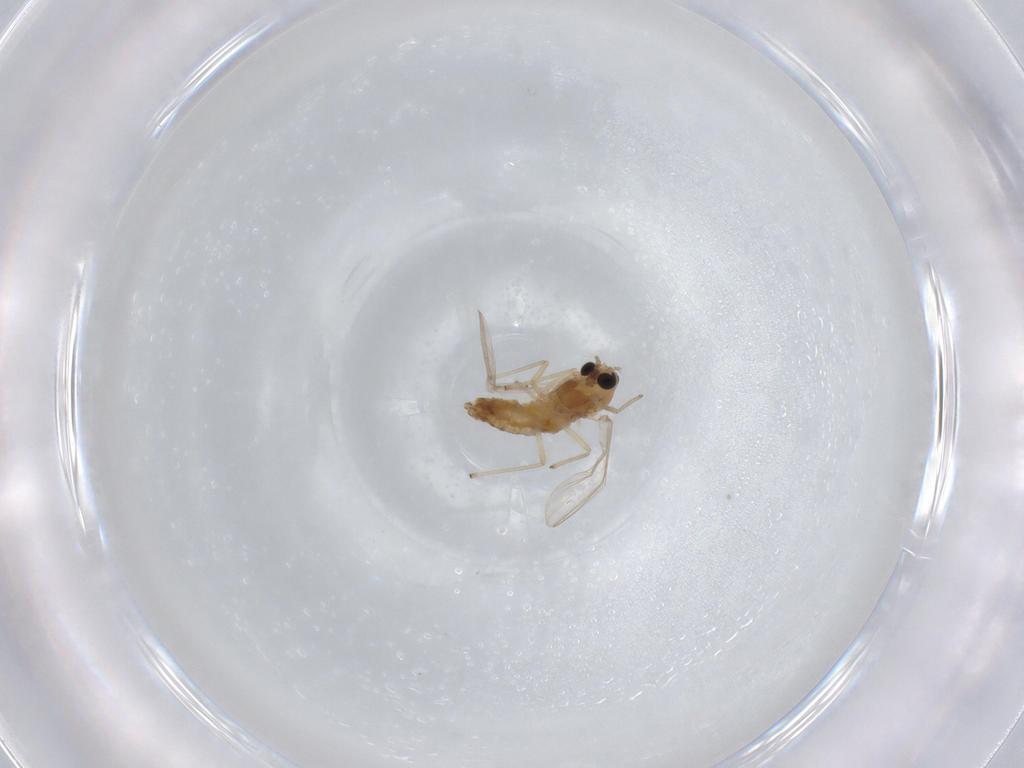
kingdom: Animalia
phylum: Arthropoda
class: Insecta
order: Diptera
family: Chironomidae
